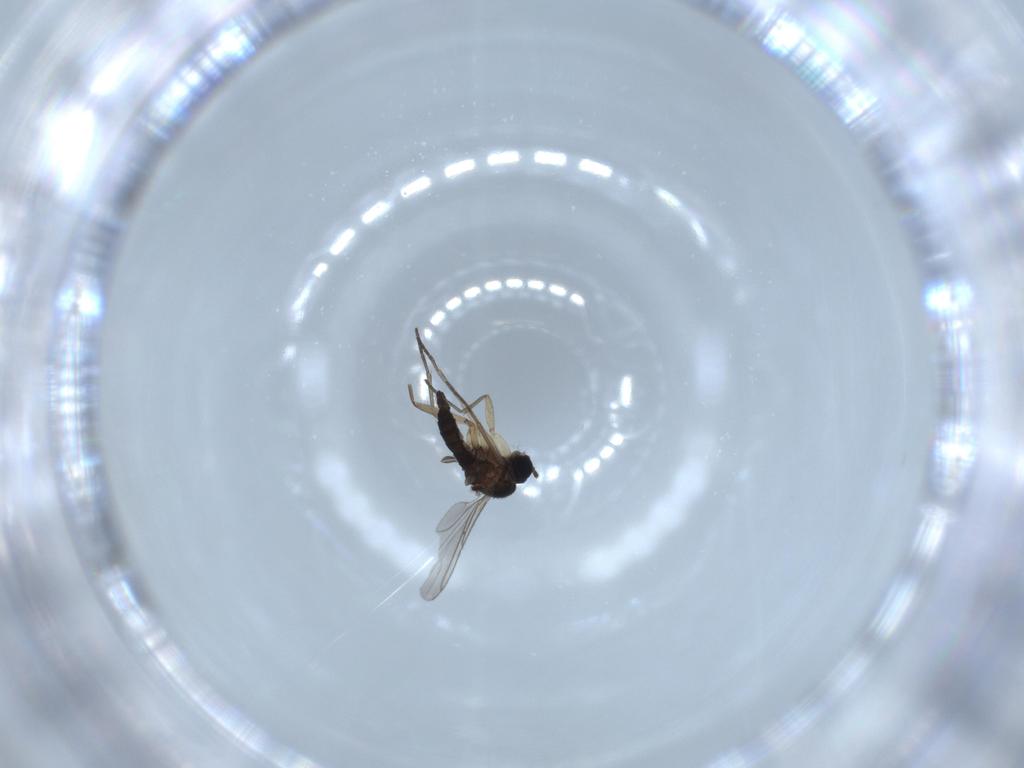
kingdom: Animalia
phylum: Arthropoda
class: Insecta
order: Diptera
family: Sciaridae
